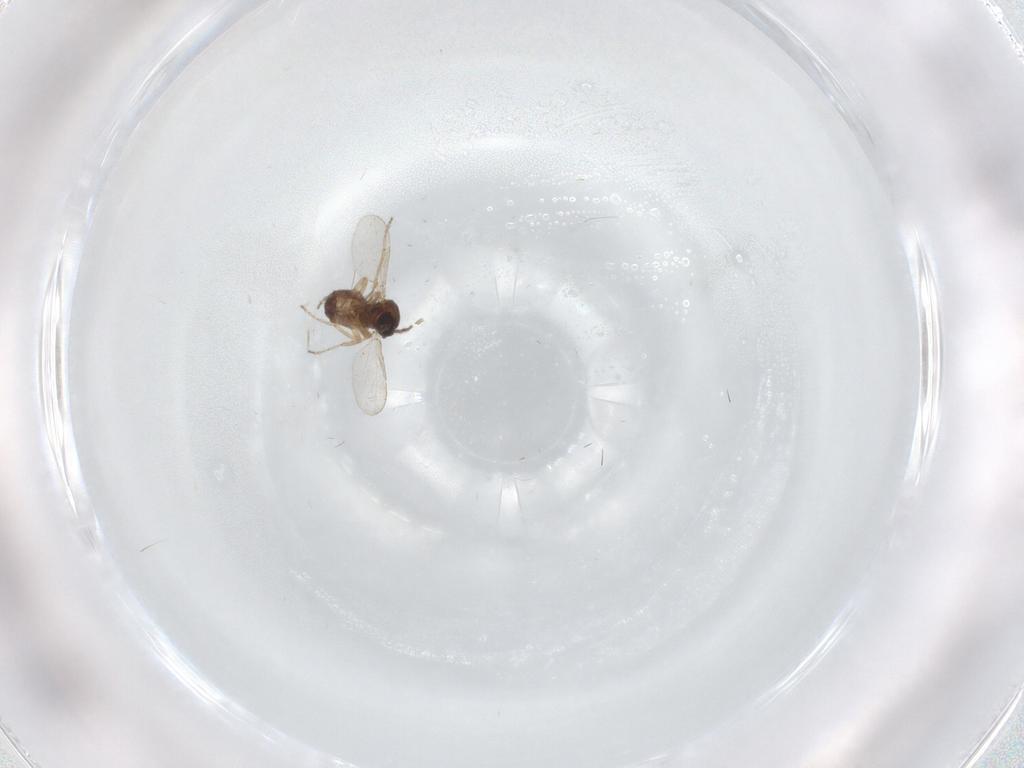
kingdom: Animalia
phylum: Arthropoda
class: Insecta
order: Diptera
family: Ceratopogonidae
